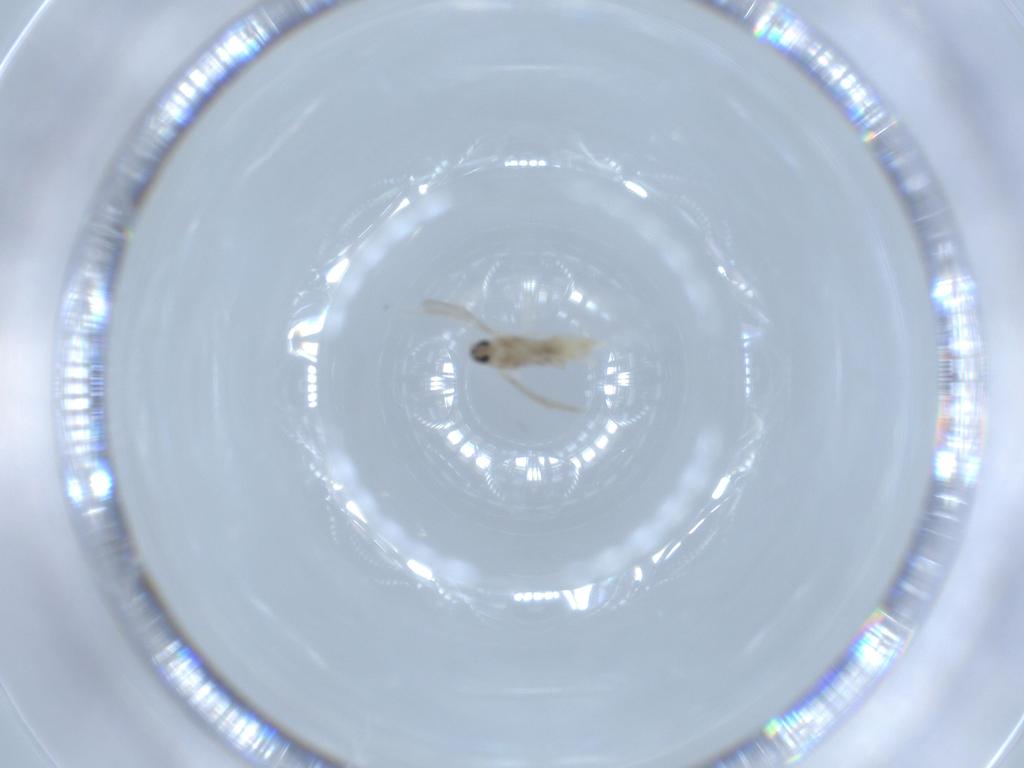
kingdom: Animalia
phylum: Arthropoda
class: Insecta
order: Diptera
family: Cecidomyiidae
